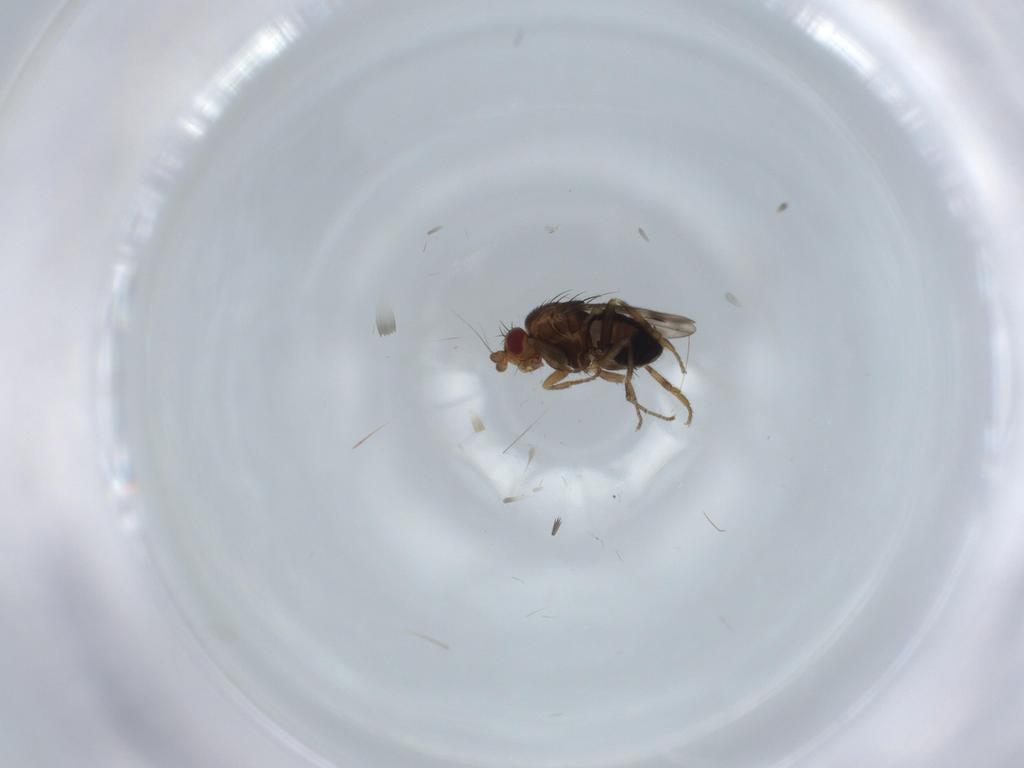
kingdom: Animalia
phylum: Arthropoda
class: Insecta
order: Diptera
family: Sphaeroceridae
